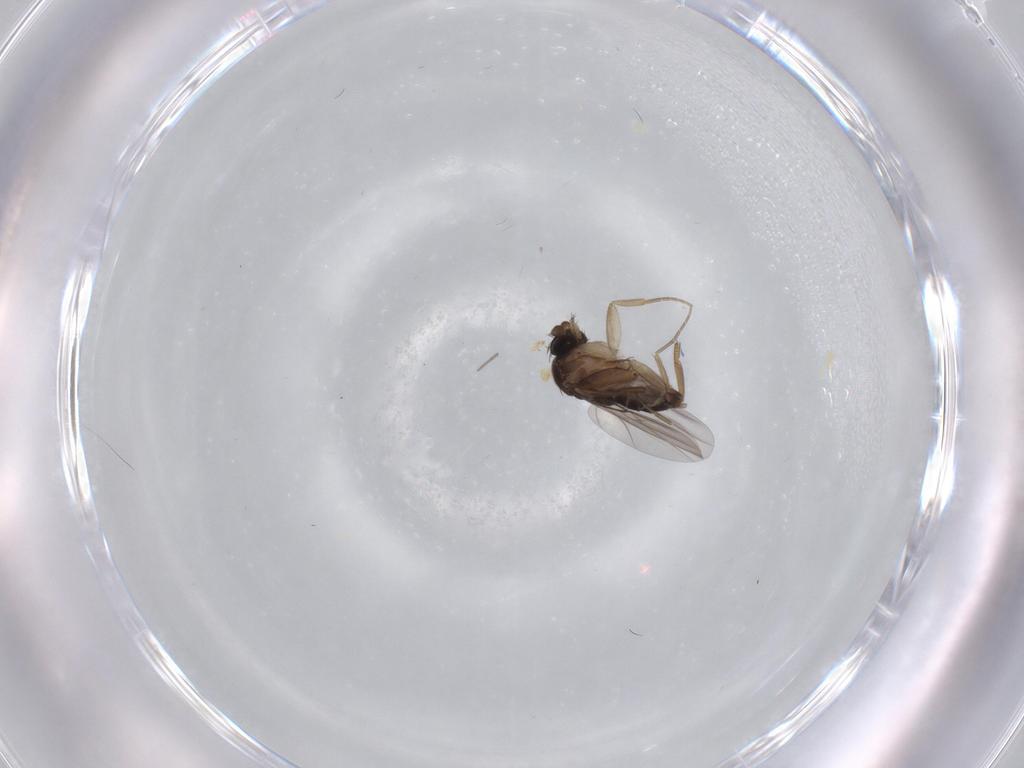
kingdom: Animalia
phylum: Arthropoda
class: Insecta
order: Diptera
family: Phoridae
